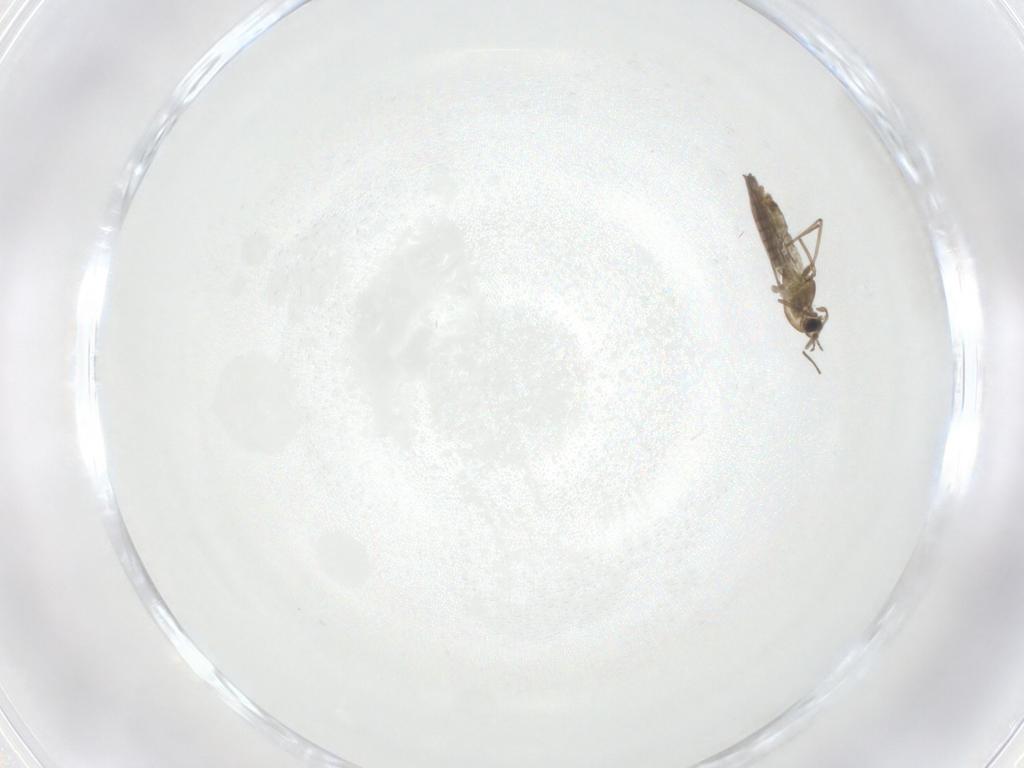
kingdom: Animalia
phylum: Arthropoda
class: Insecta
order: Diptera
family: Chironomidae
